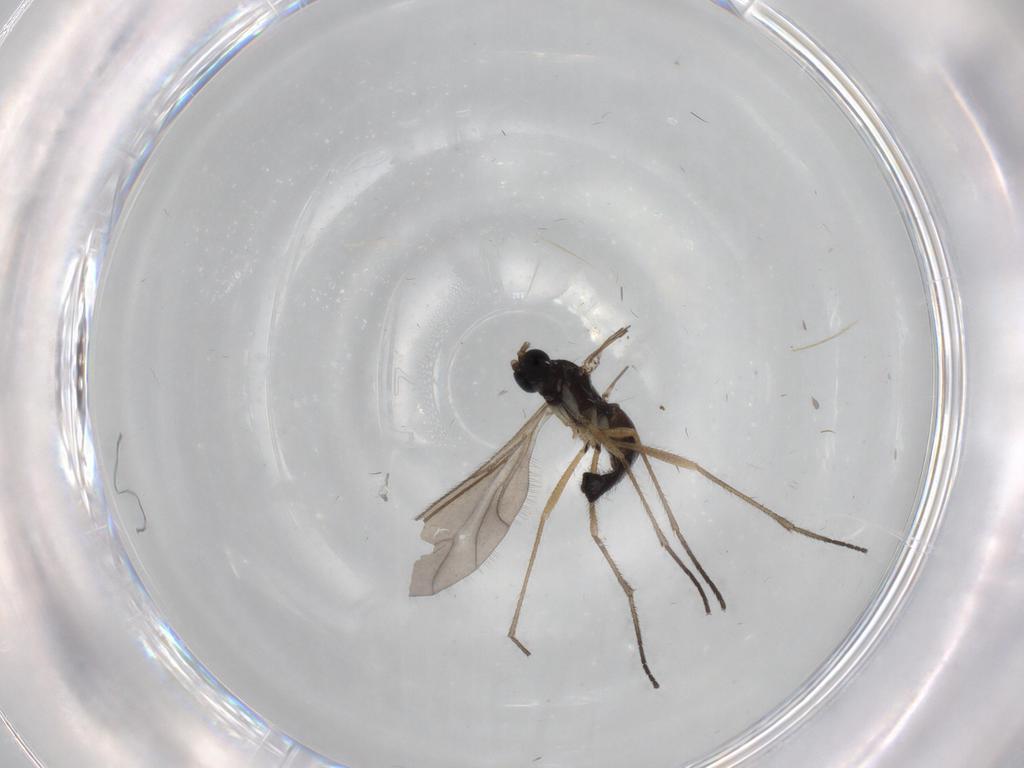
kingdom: Animalia
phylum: Arthropoda
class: Insecta
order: Diptera
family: Sciaridae
